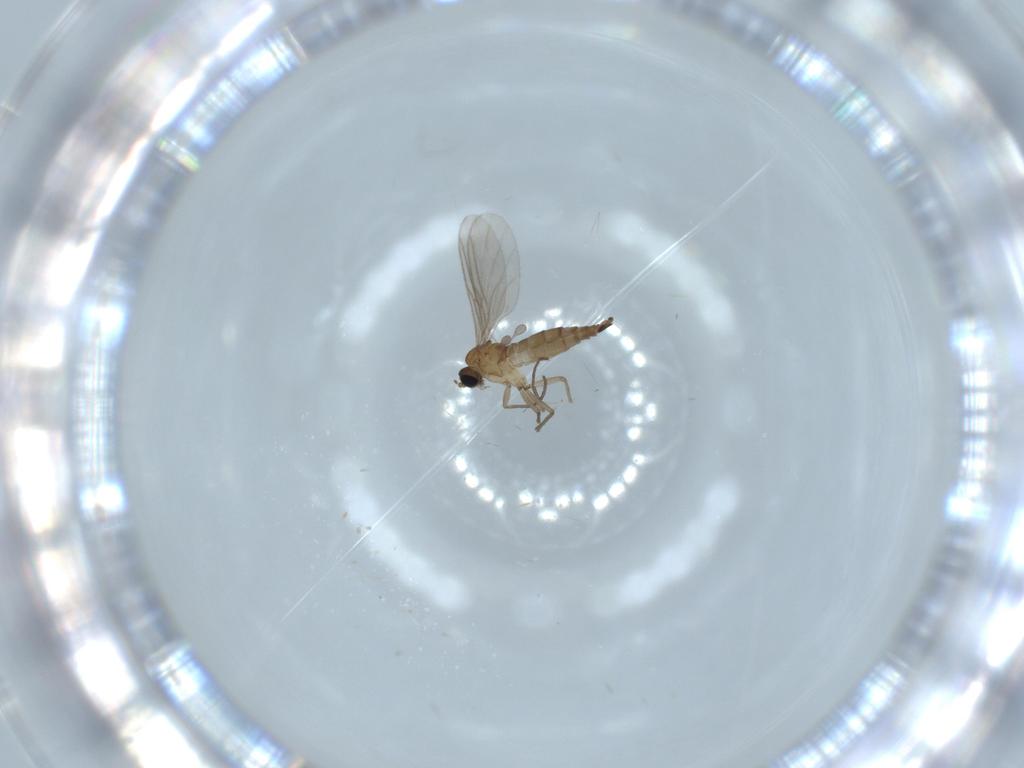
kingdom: Animalia
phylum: Arthropoda
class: Insecta
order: Diptera
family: Sciaridae
